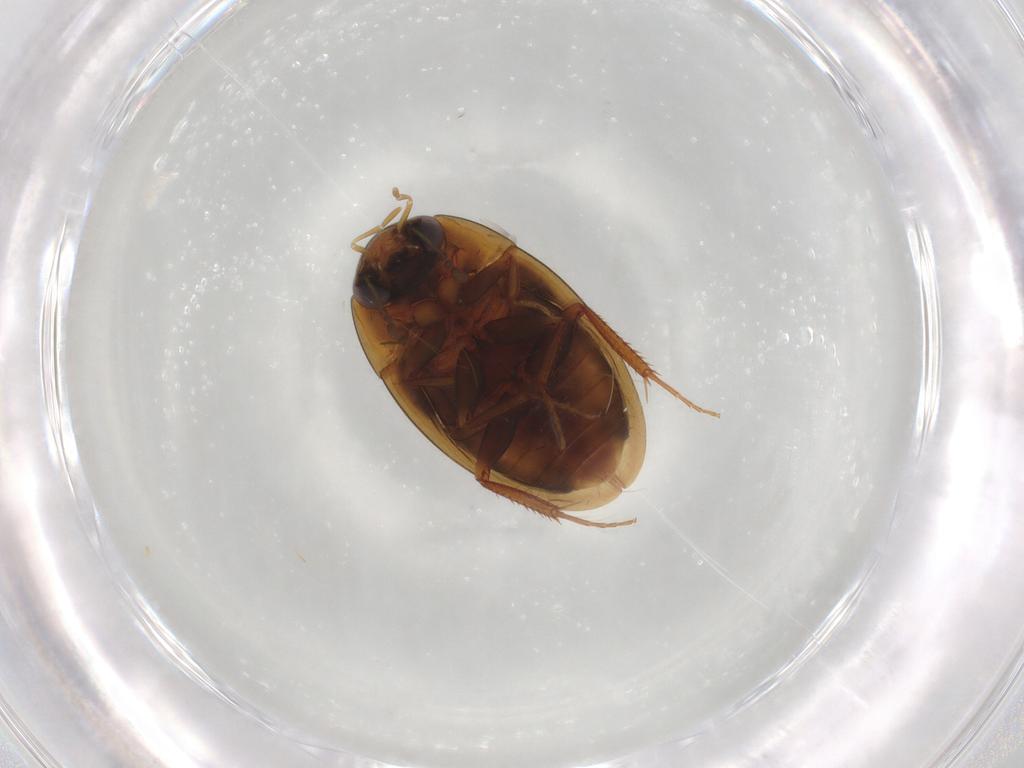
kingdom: Animalia
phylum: Arthropoda
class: Insecta
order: Coleoptera
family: Hydrophilidae
